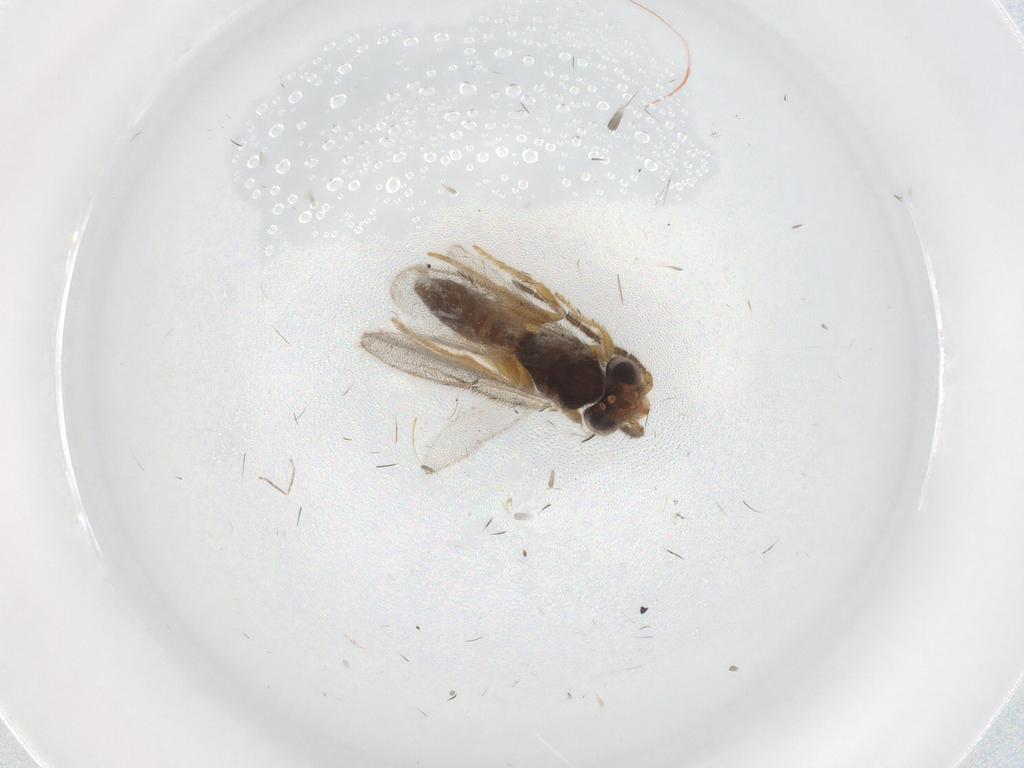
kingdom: Animalia
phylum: Arthropoda
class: Insecta
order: Hymenoptera
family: Dryinidae
